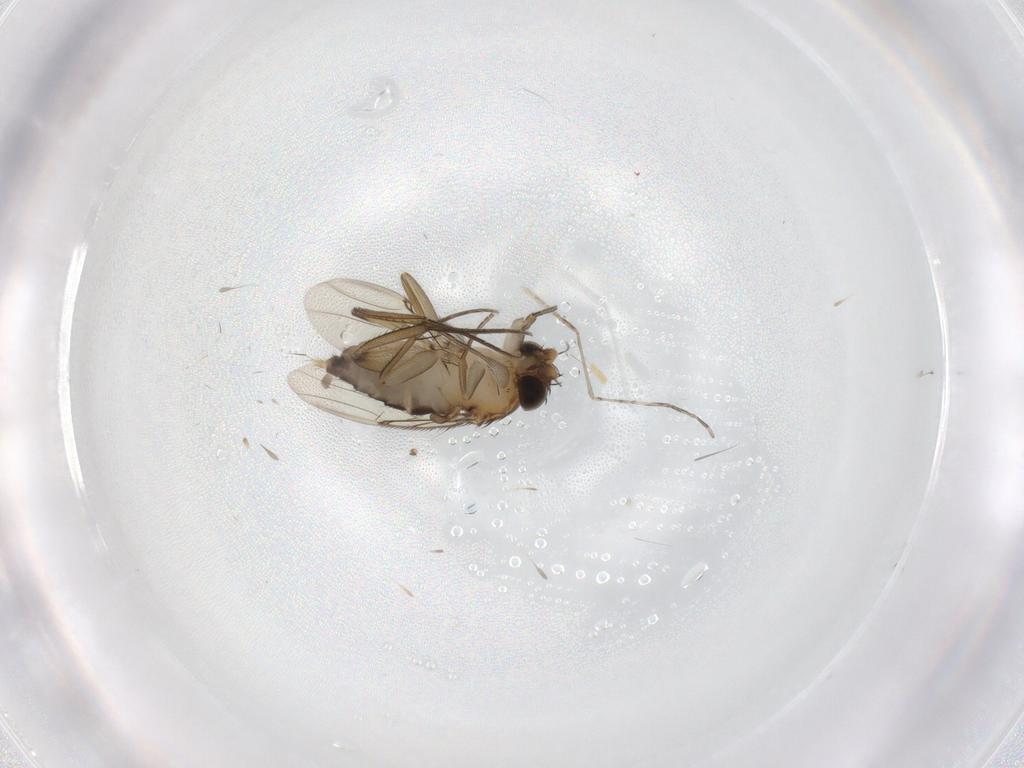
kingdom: Animalia
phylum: Arthropoda
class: Insecta
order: Diptera
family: Phoridae
